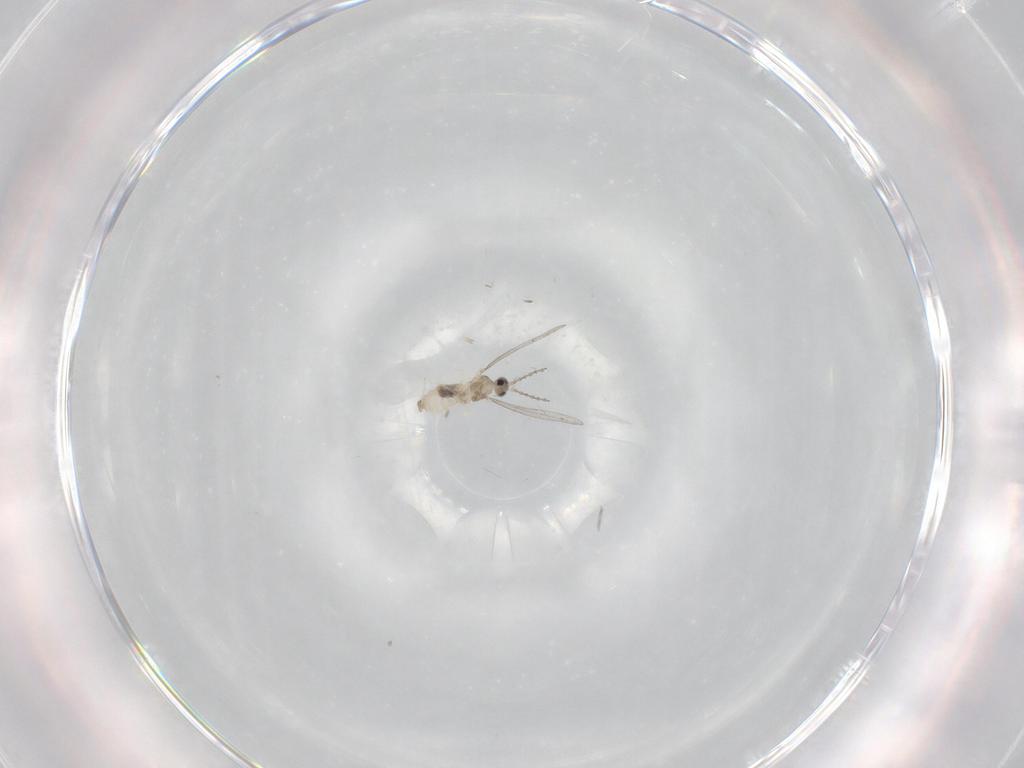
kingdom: Animalia
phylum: Arthropoda
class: Insecta
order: Diptera
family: Cecidomyiidae
